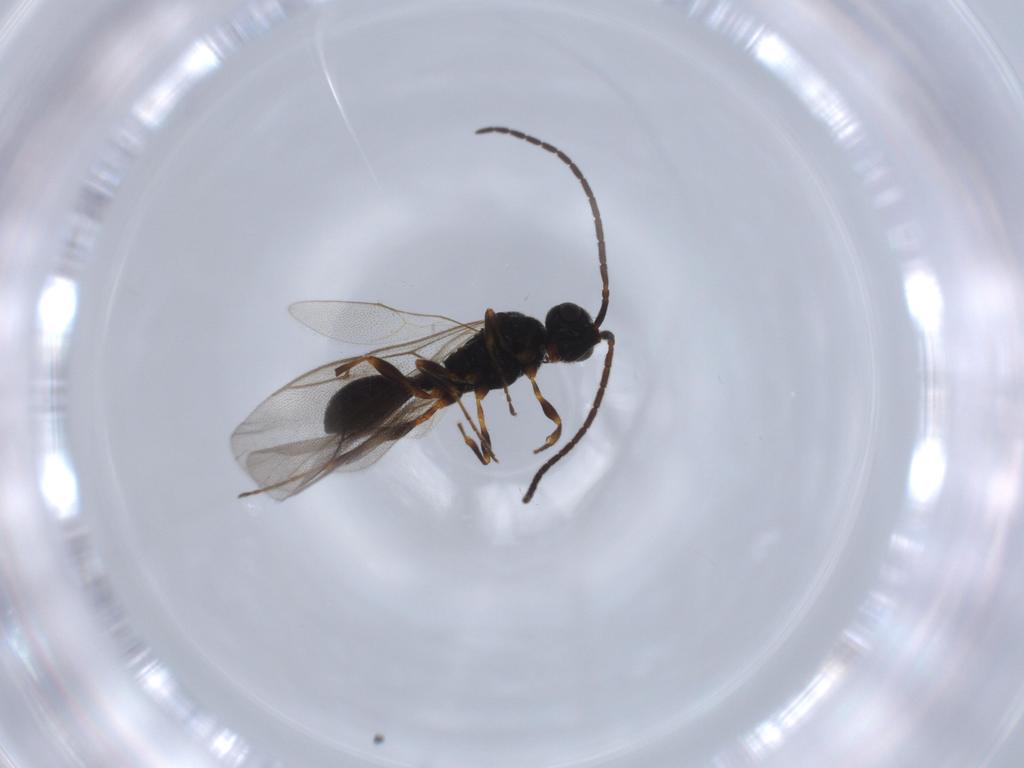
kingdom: Animalia
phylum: Arthropoda
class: Insecta
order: Hymenoptera
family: Diapriidae
